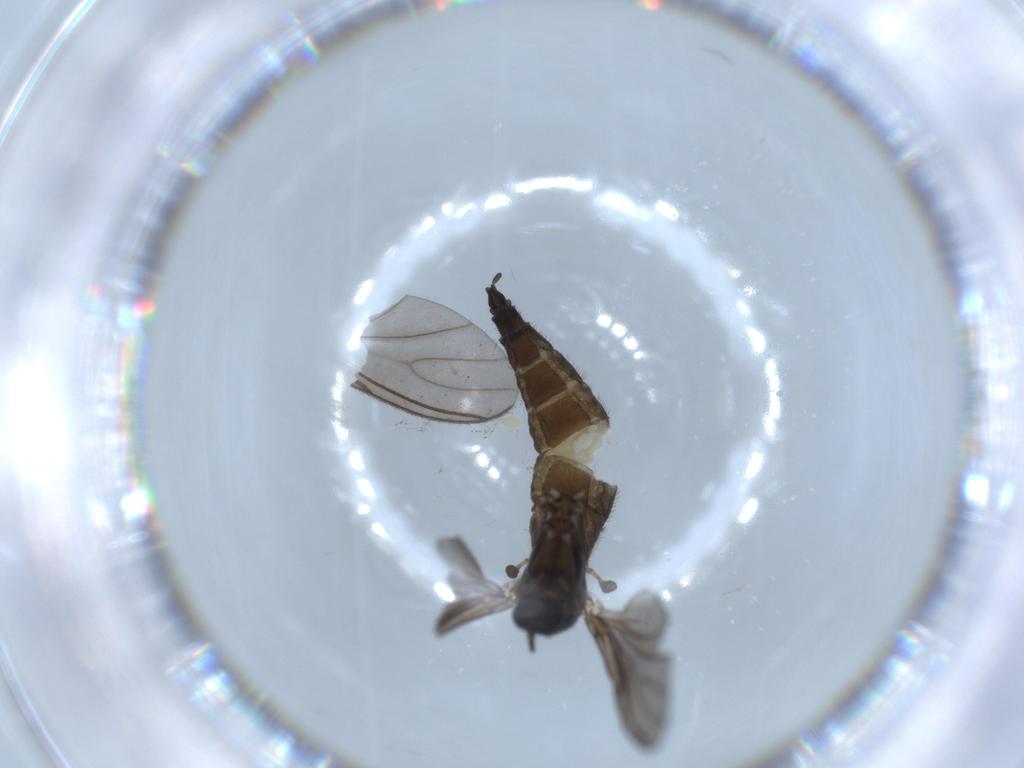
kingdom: Animalia
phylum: Arthropoda
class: Insecta
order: Diptera
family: Sciaridae
